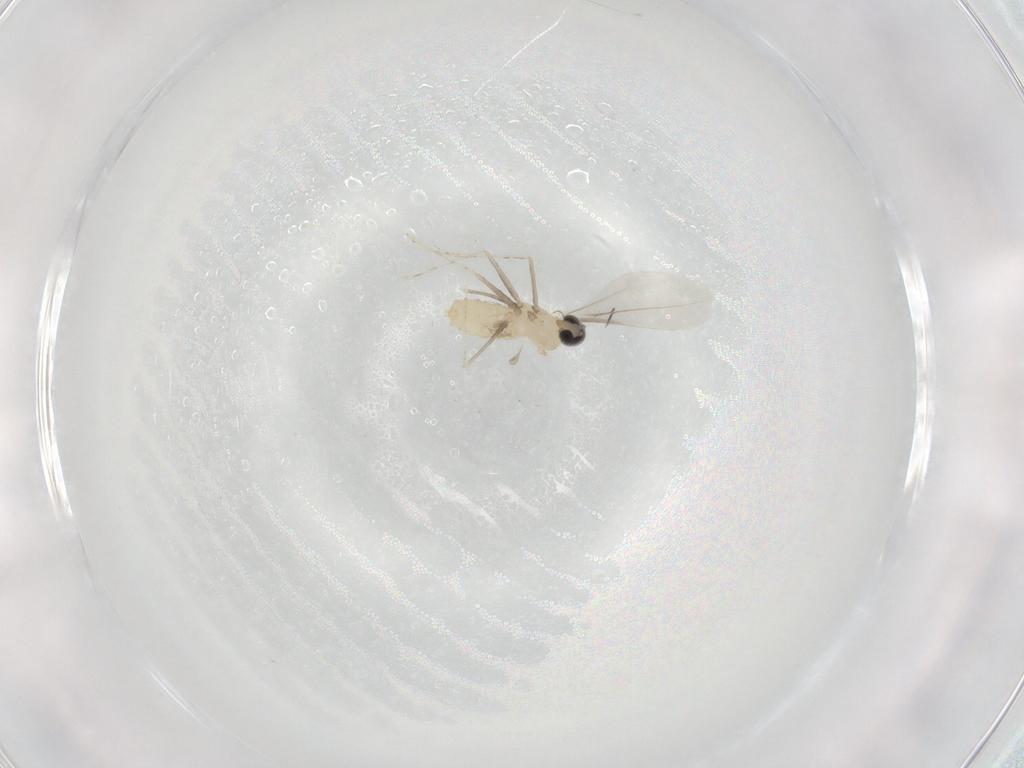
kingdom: Animalia
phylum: Arthropoda
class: Insecta
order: Diptera
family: Cecidomyiidae
